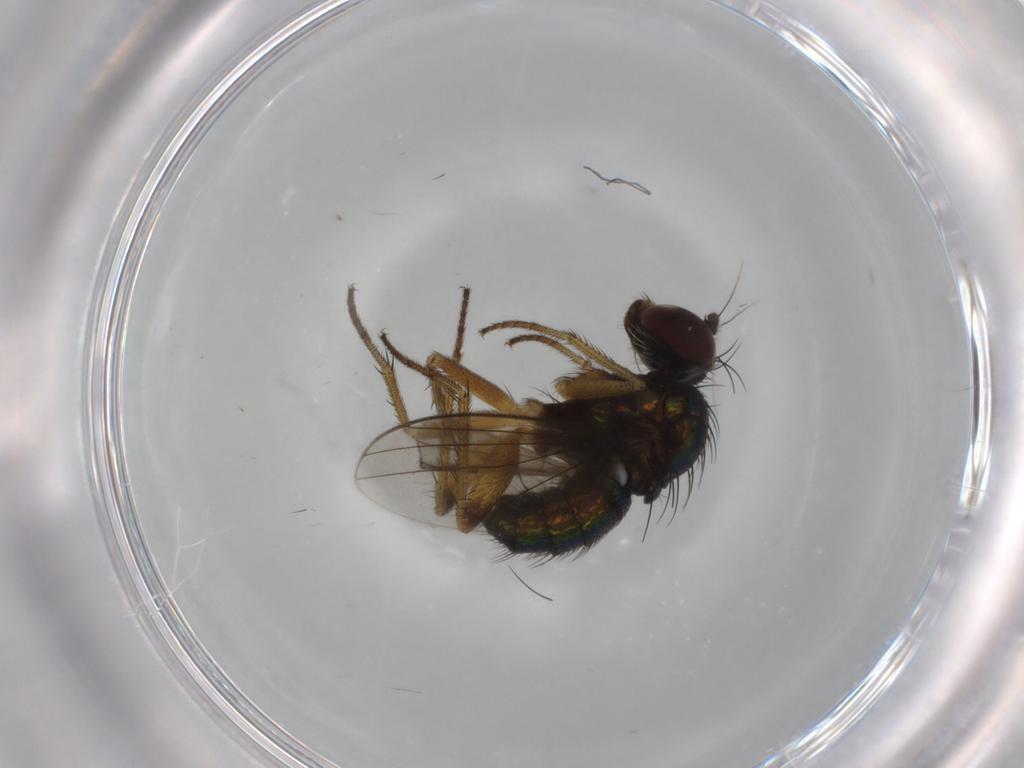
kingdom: Animalia
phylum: Arthropoda
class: Insecta
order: Diptera
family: Dolichopodidae
